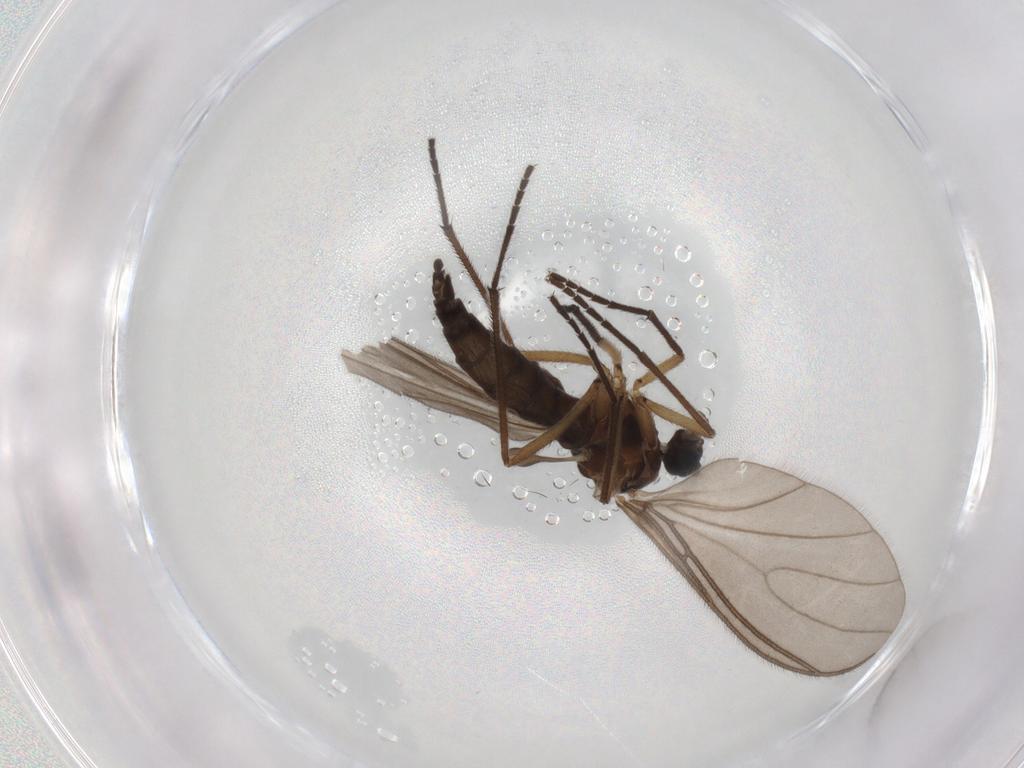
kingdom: Animalia
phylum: Arthropoda
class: Insecta
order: Diptera
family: Sciaridae
